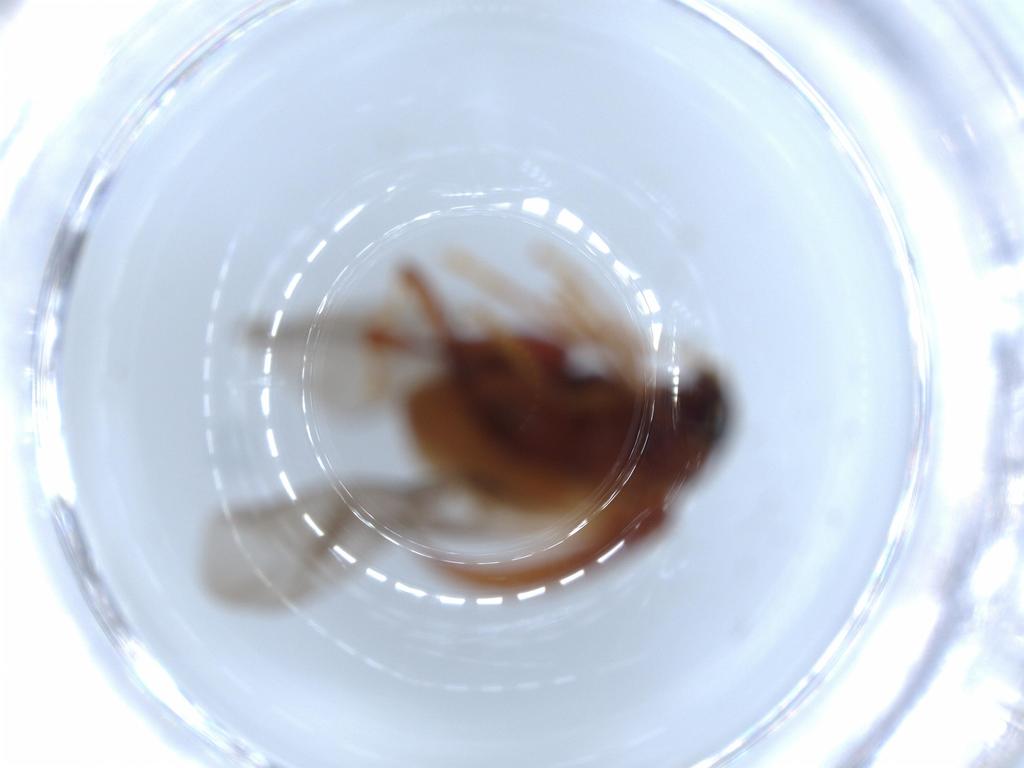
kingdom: Animalia
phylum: Arthropoda
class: Insecta
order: Coleoptera
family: Chrysomelidae
